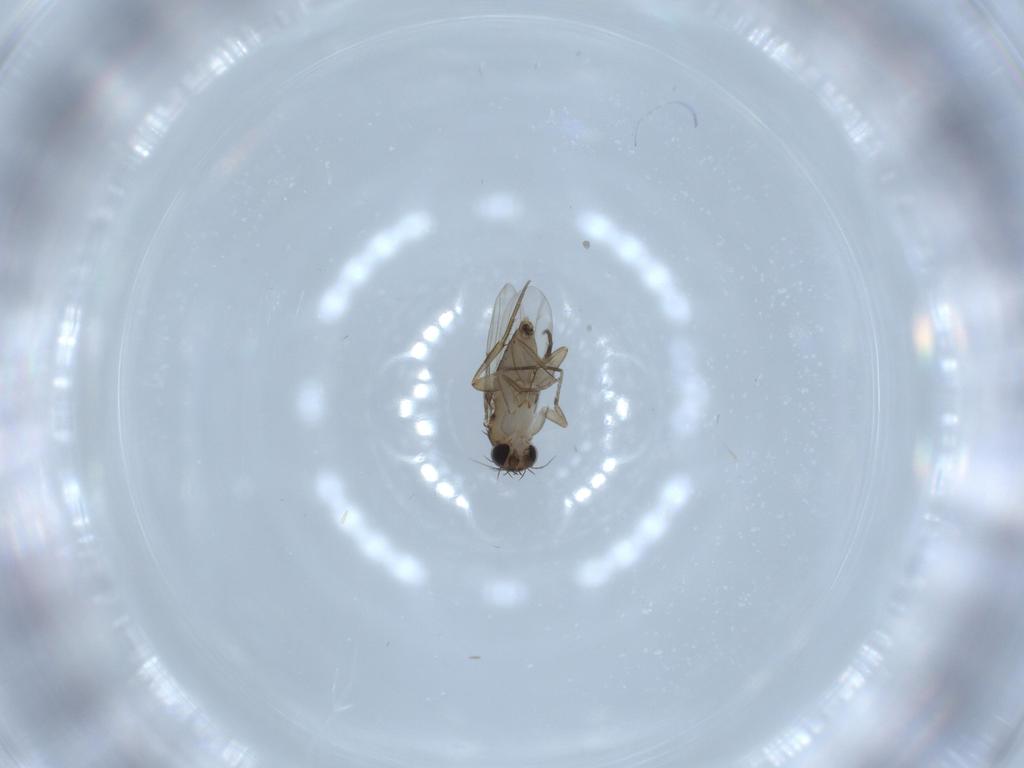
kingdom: Animalia
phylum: Arthropoda
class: Insecta
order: Diptera
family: Phoridae
